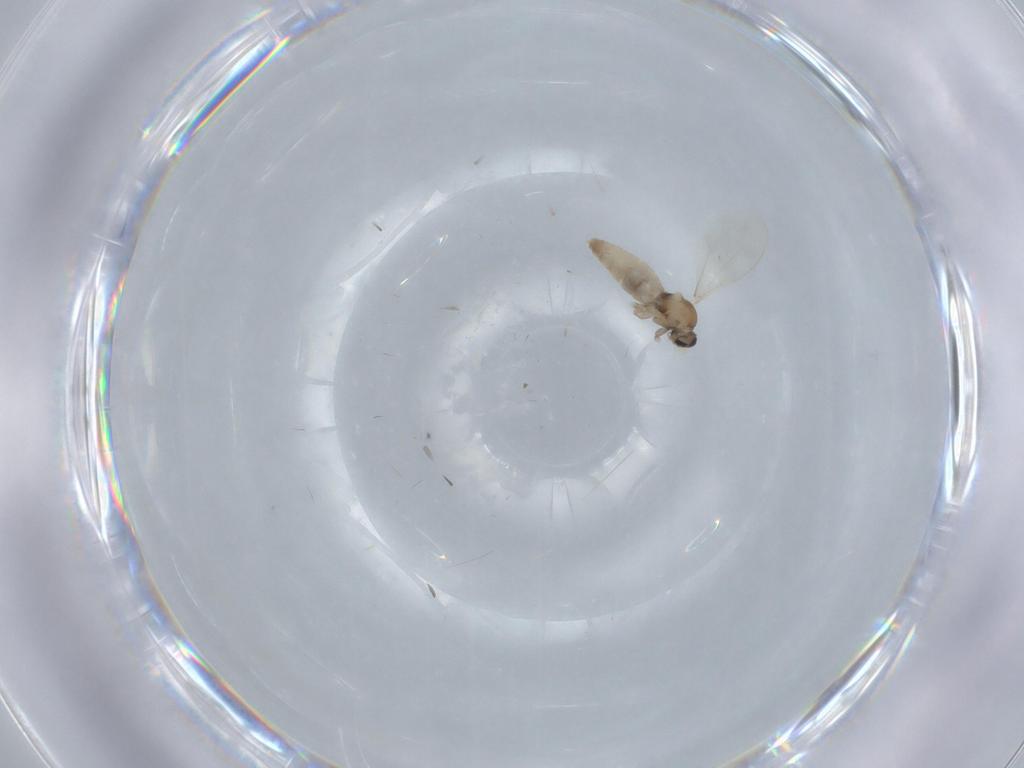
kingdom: Animalia
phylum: Arthropoda
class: Insecta
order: Diptera
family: Cecidomyiidae
